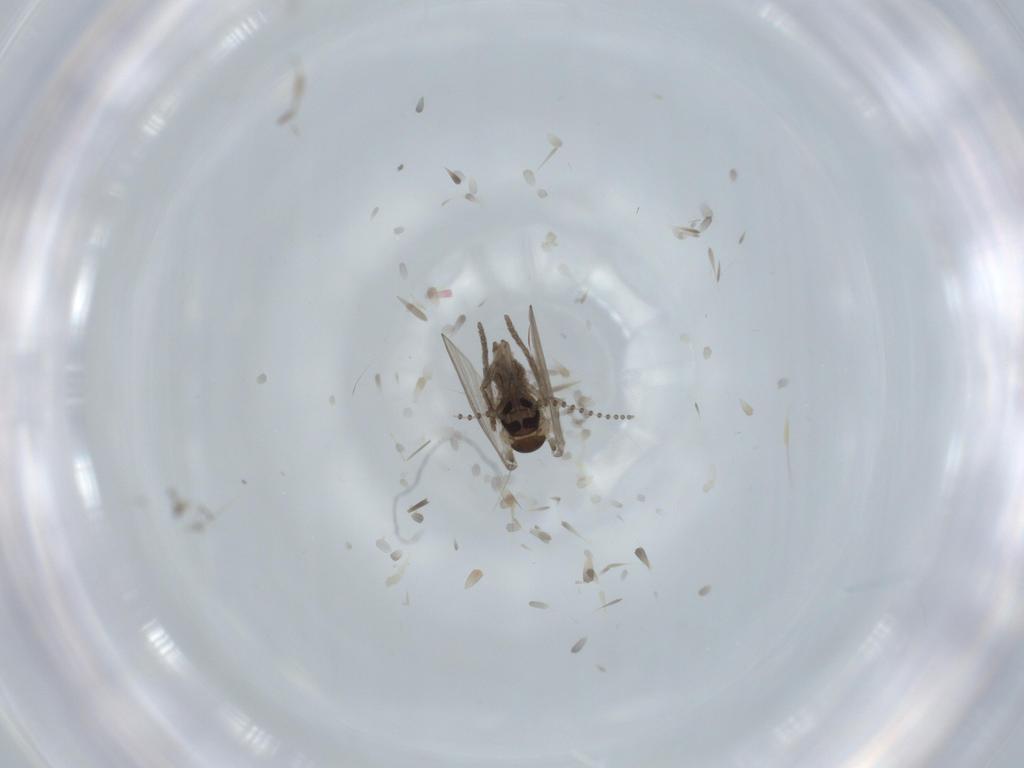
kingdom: Animalia
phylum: Arthropoda
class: Insecta
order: Diptera
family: Psychodidae
